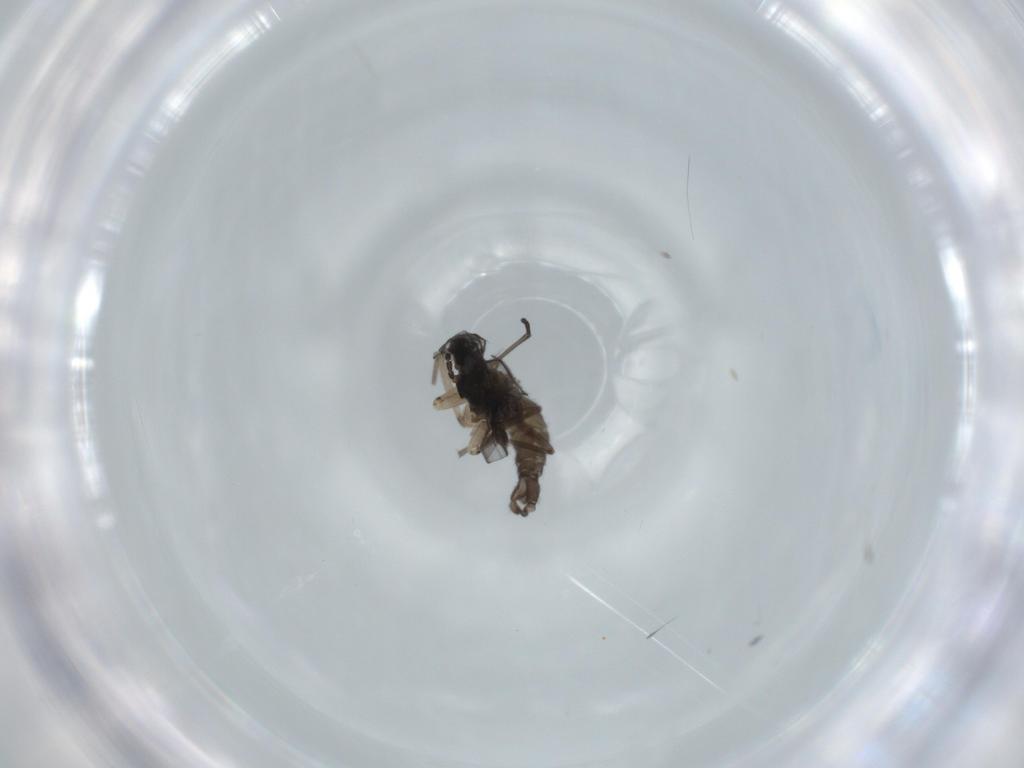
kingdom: Animalia
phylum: Arthropoda
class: Insecta
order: Diptera
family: Sciaridae
